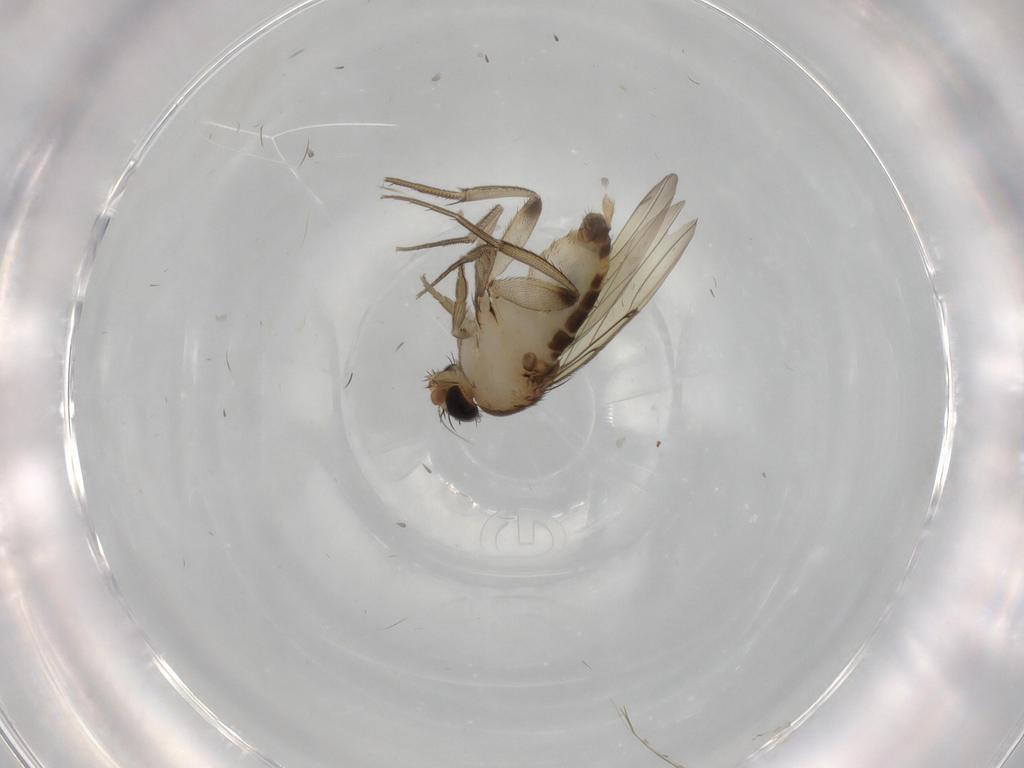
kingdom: Animalia
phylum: Arthropoda
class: Insecta
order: Diptera
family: Phoridae
